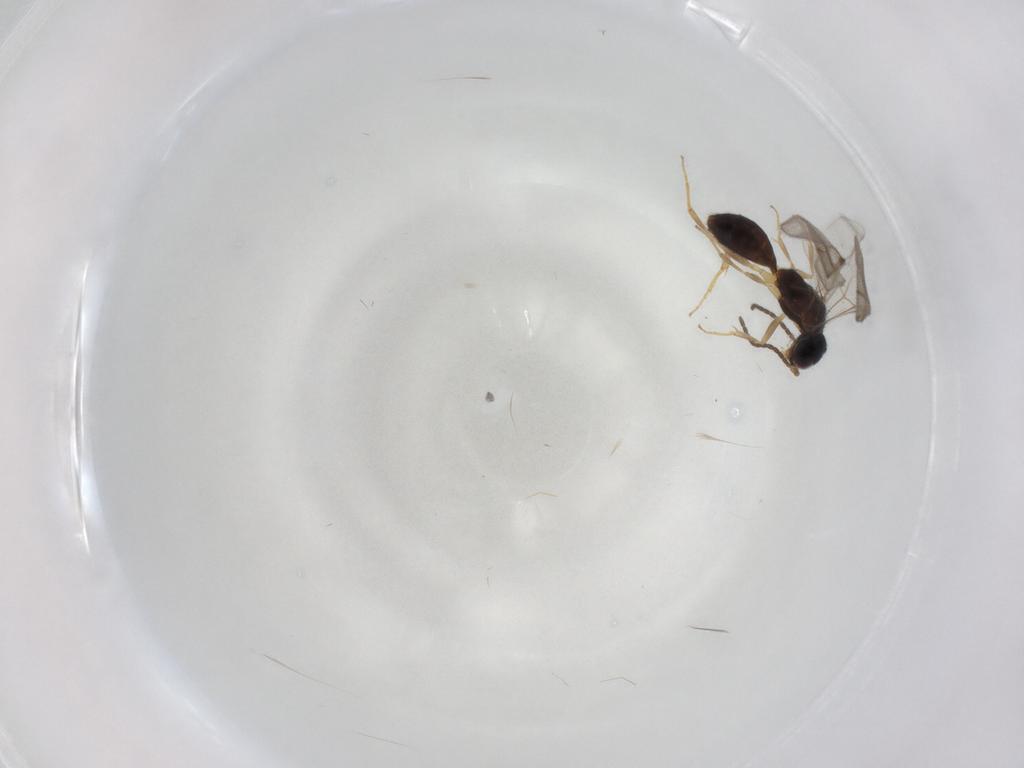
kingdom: Animalia
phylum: Arthropoda
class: Insecta
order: Hymenoptera
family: Bethylidae
